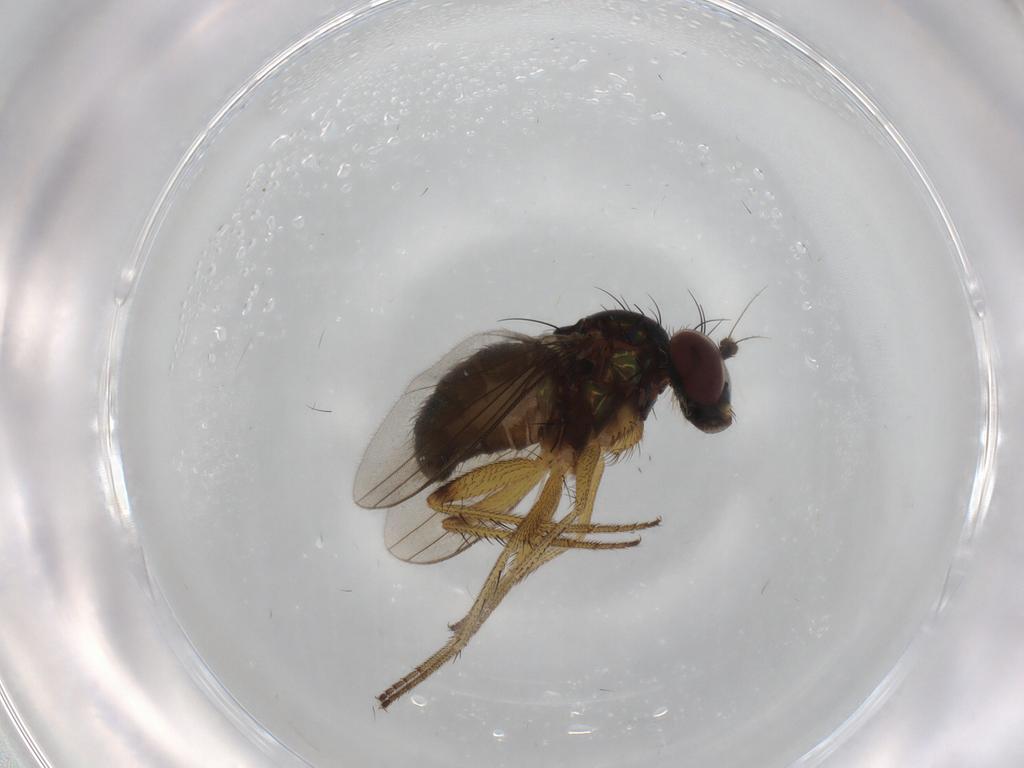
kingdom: Animalia
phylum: Arthropoda
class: Insecta
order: Diptera
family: Dolichopodidae
